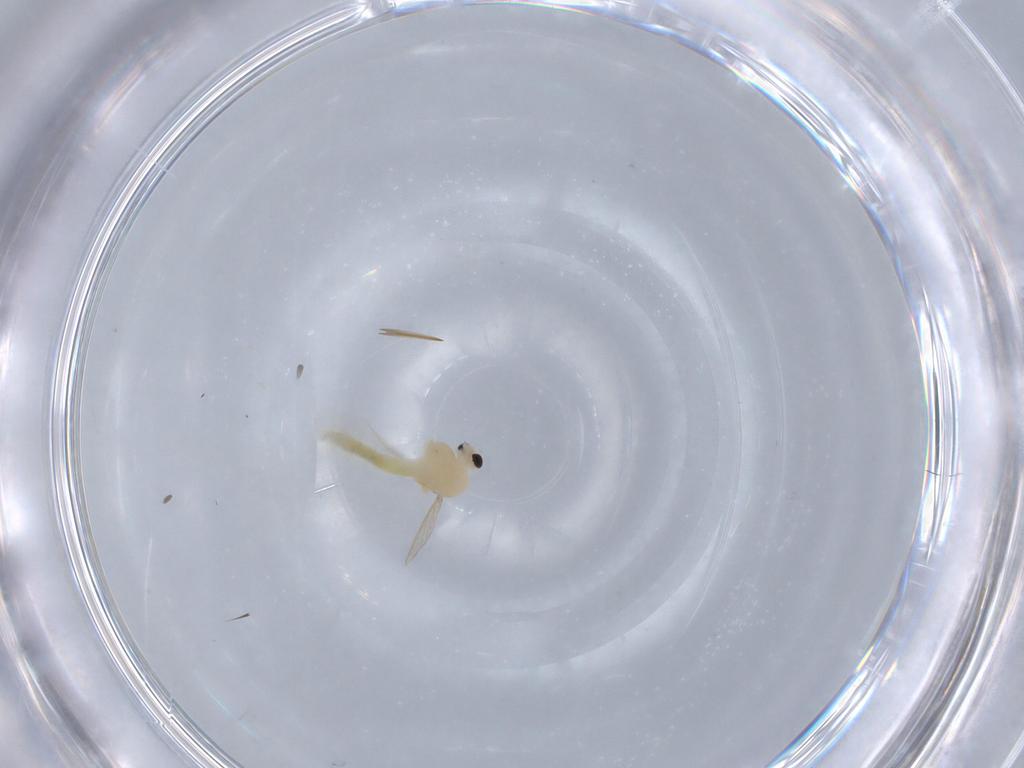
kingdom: Animalia
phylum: Arthropoda
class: Insecta
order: Diptera
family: Chironomidae
